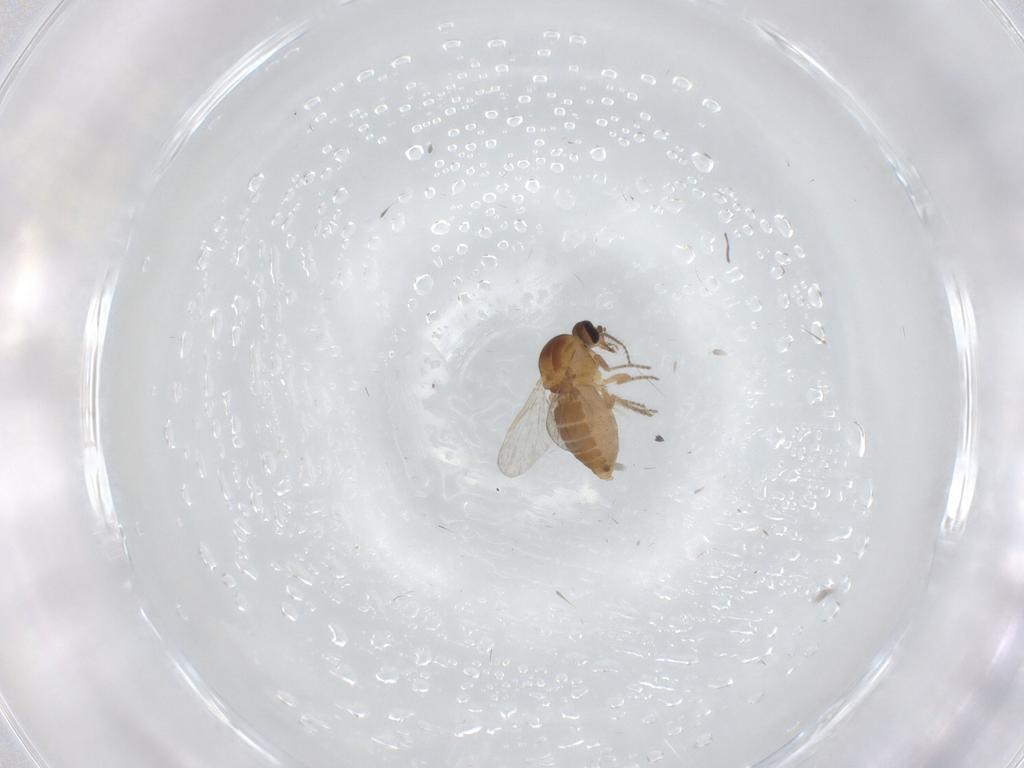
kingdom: Animalia
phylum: Arthropoda
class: Insecta
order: Diptera
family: Ceratopogonidae
